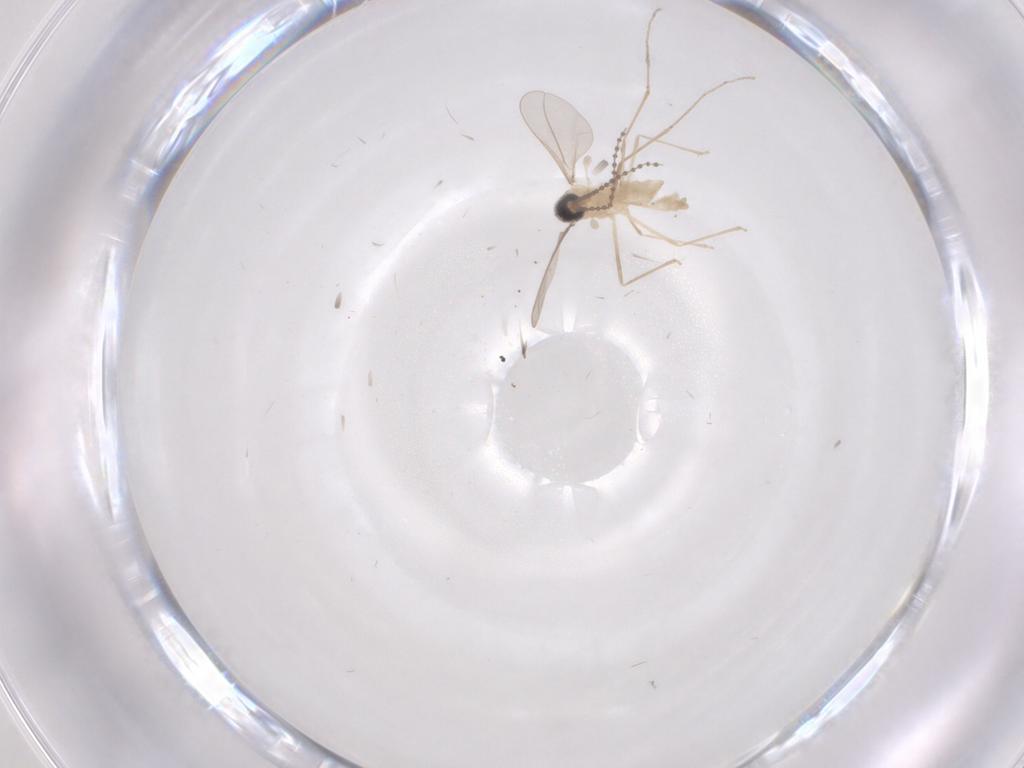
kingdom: Animalia
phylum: Arthropoda
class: Insecta
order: Diptera
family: Cecidomyiidae
